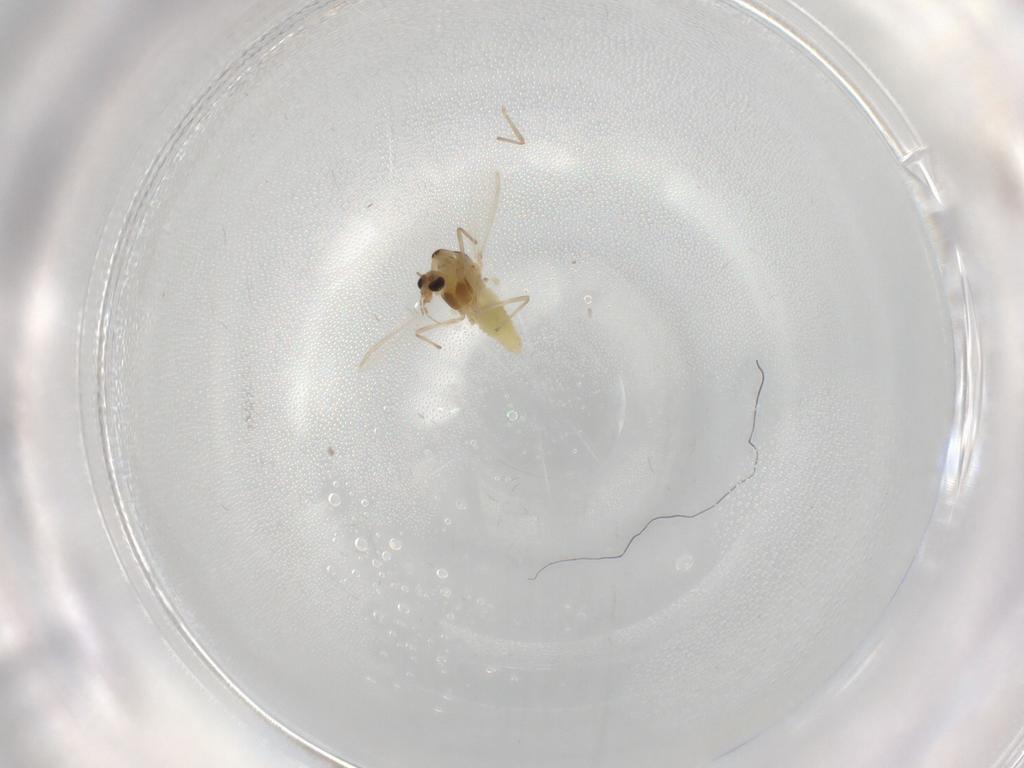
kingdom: Animalia
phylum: Arthropoda
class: Insecta
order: Diptera
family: Chironomidae
